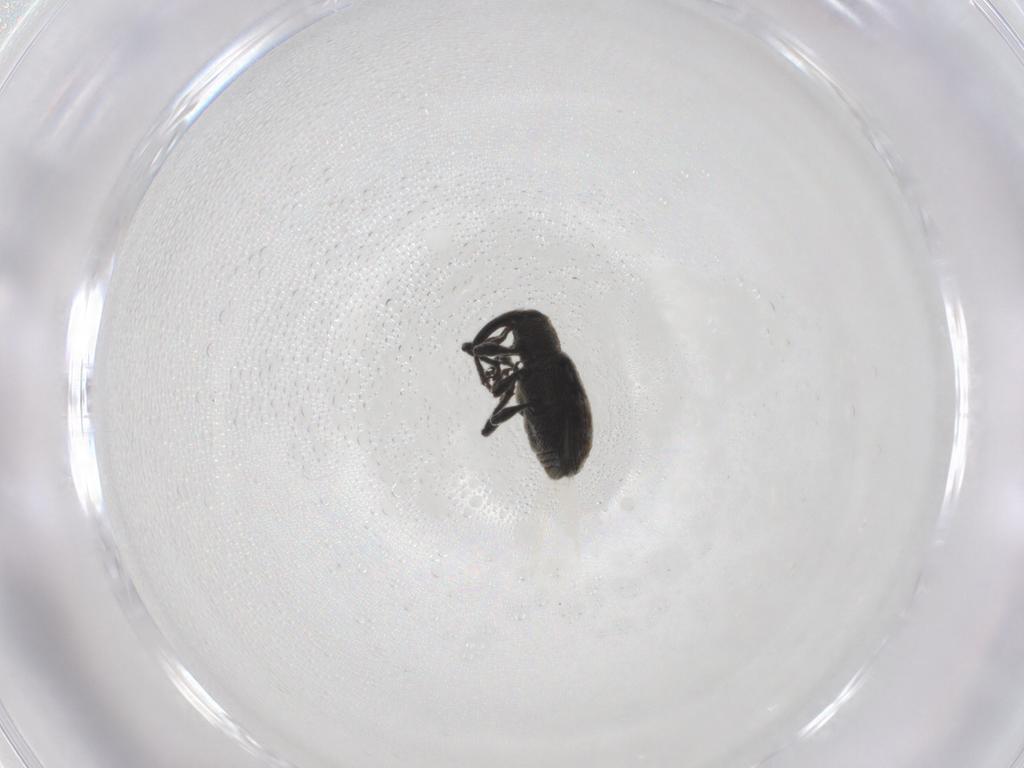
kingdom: Animalia
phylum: Arthropoda
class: Insecta
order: Coleoptera
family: Curculionidae
